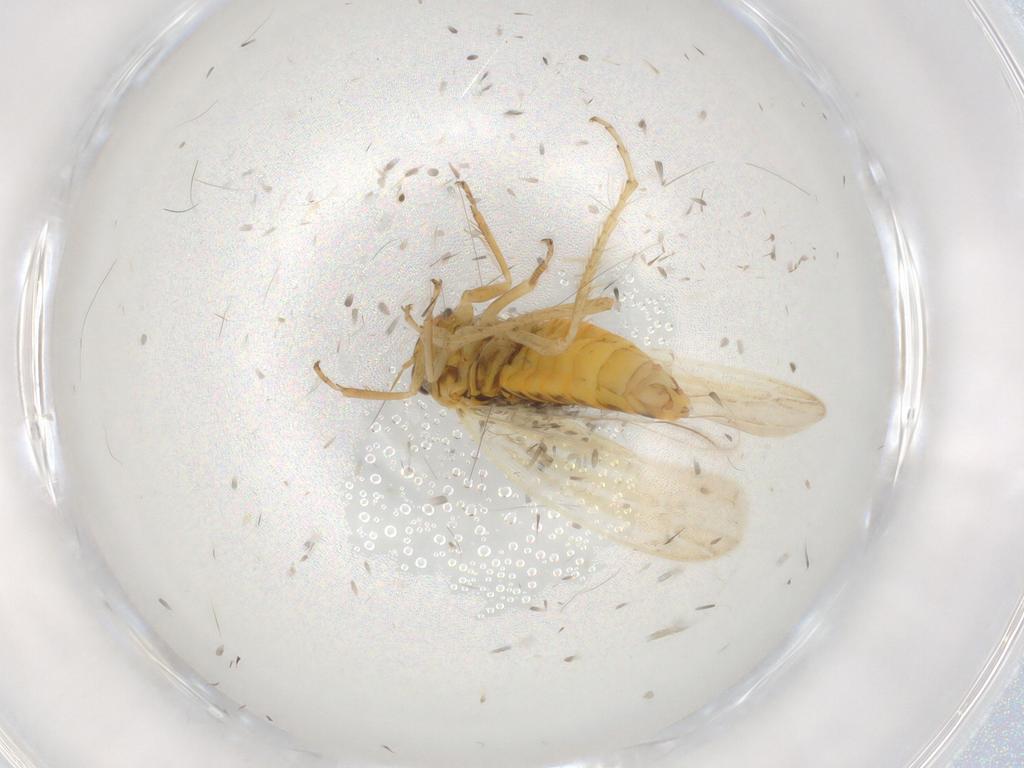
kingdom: Animalia
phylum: Arthropoda
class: Insecta
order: Hemiptera
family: Cicadellidae
